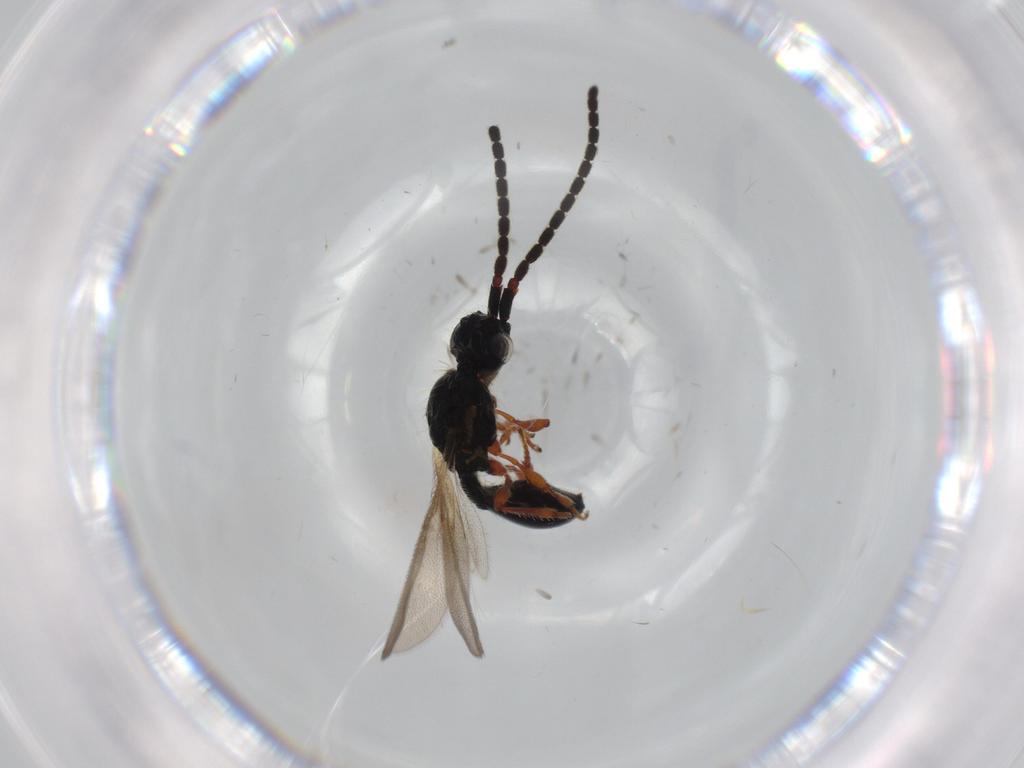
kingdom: Animalia
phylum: Arthropoda
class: Insecta
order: Hymenoptera
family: Diapriidae
